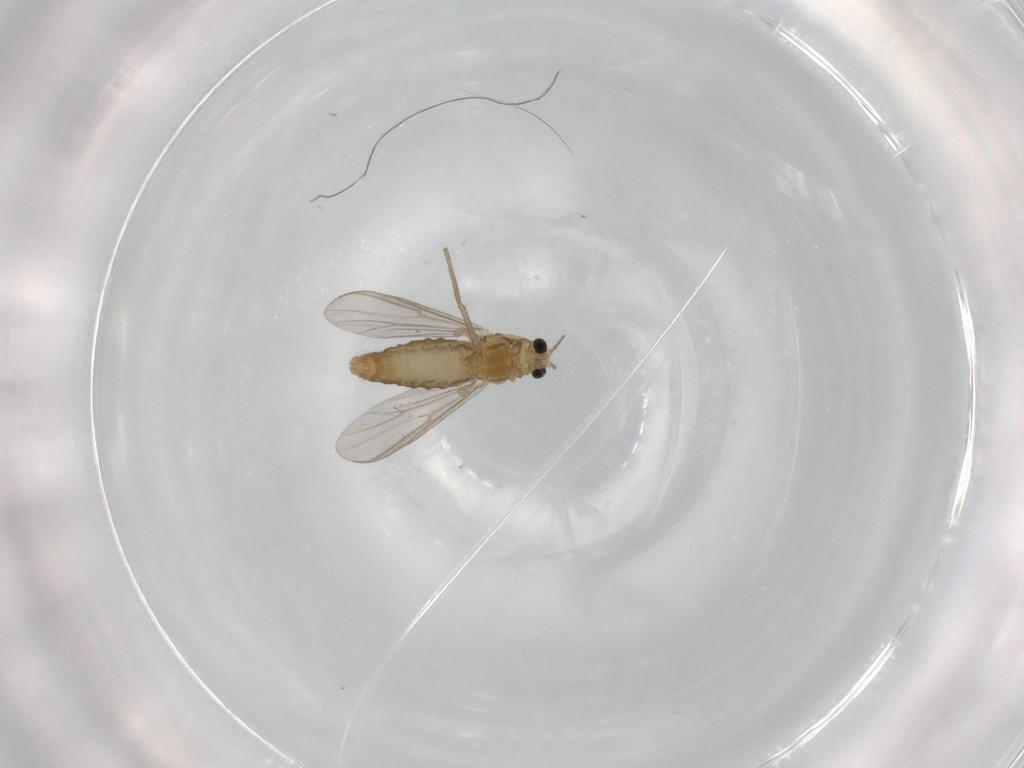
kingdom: Animalia
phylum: Arthropoda
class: Insecta
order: Diptera
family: Chironomidae
